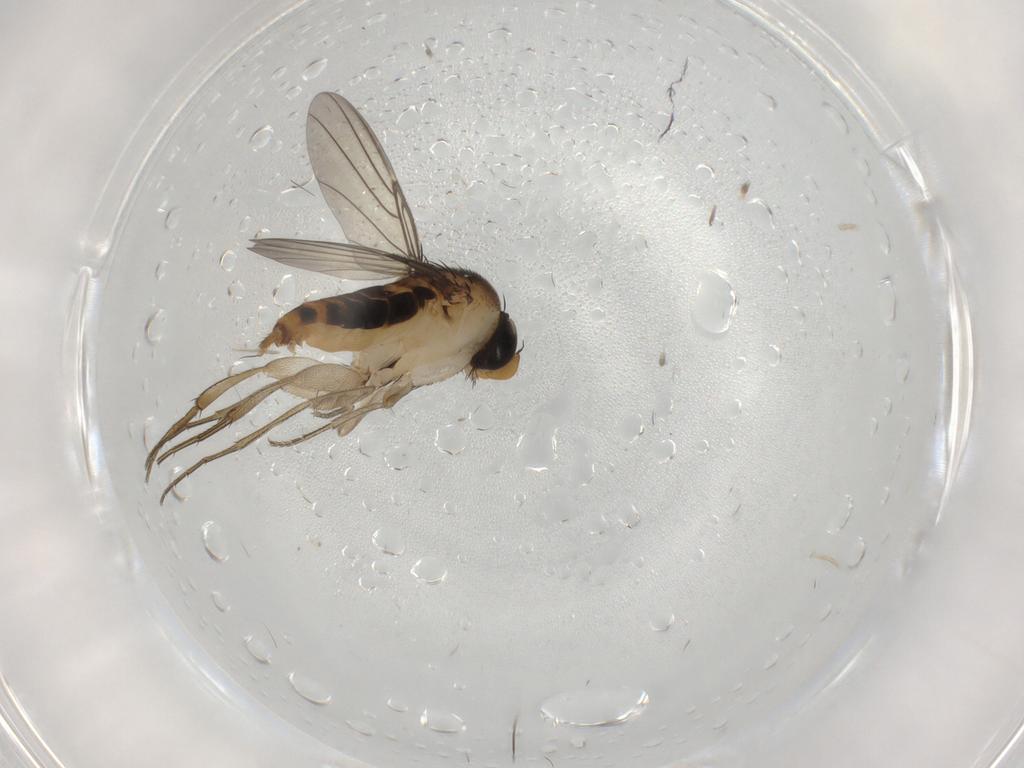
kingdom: Animalia
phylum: Arthropoda
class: Insecta
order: Diptera
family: Phoridae
